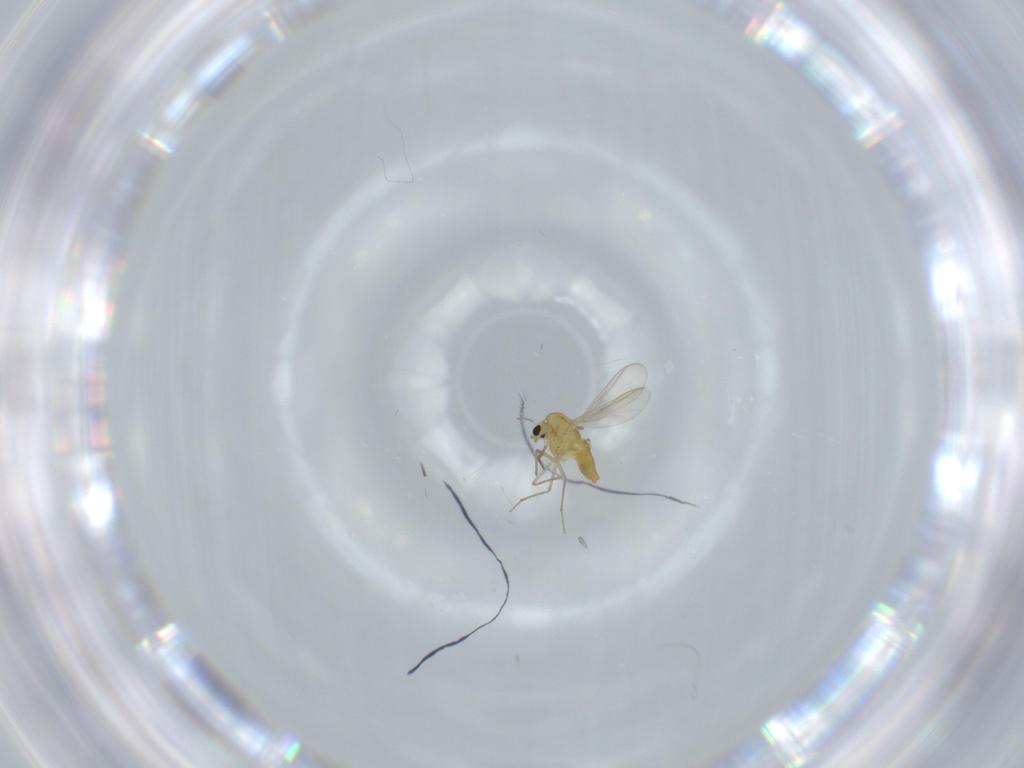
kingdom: Animalia
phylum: Arthropoda
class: Insecta
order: Diptera
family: Chironomidae
